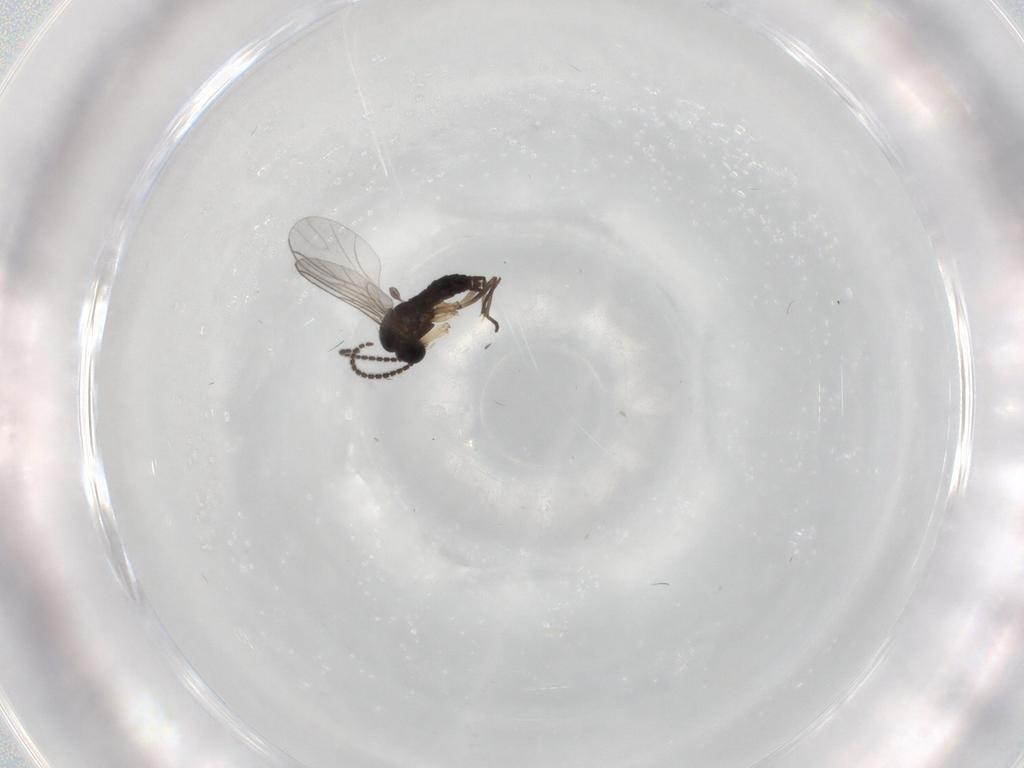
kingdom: Animalia
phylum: Arthropoda
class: Insecta
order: Diptera
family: Sciaridae
